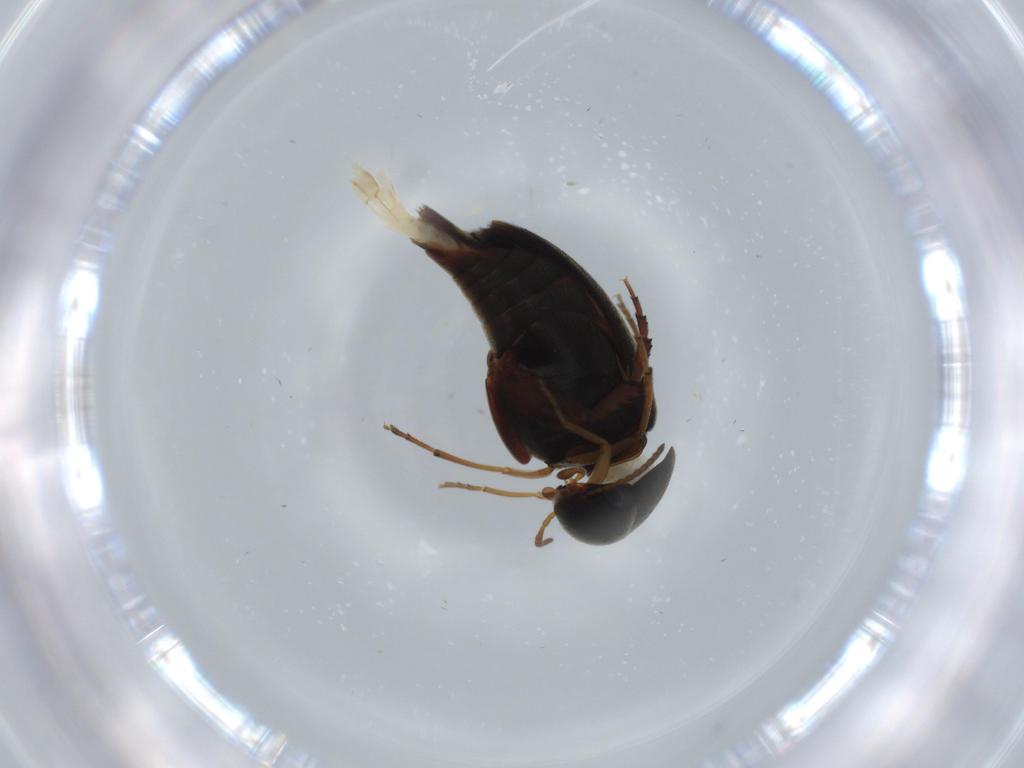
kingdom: Animalia
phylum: Arthropoda
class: Insecta
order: Coleoptera
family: Mordellidae
